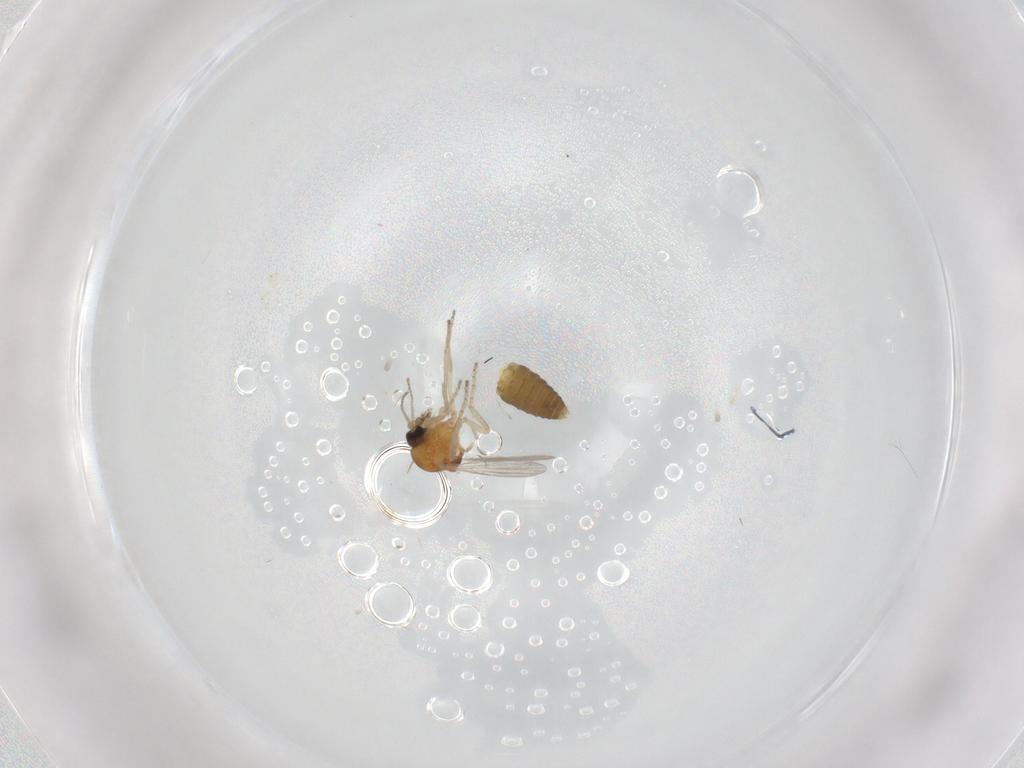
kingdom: Animalia
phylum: Arthropoda
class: Insecta
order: Diptera
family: Ceratopogonidae
